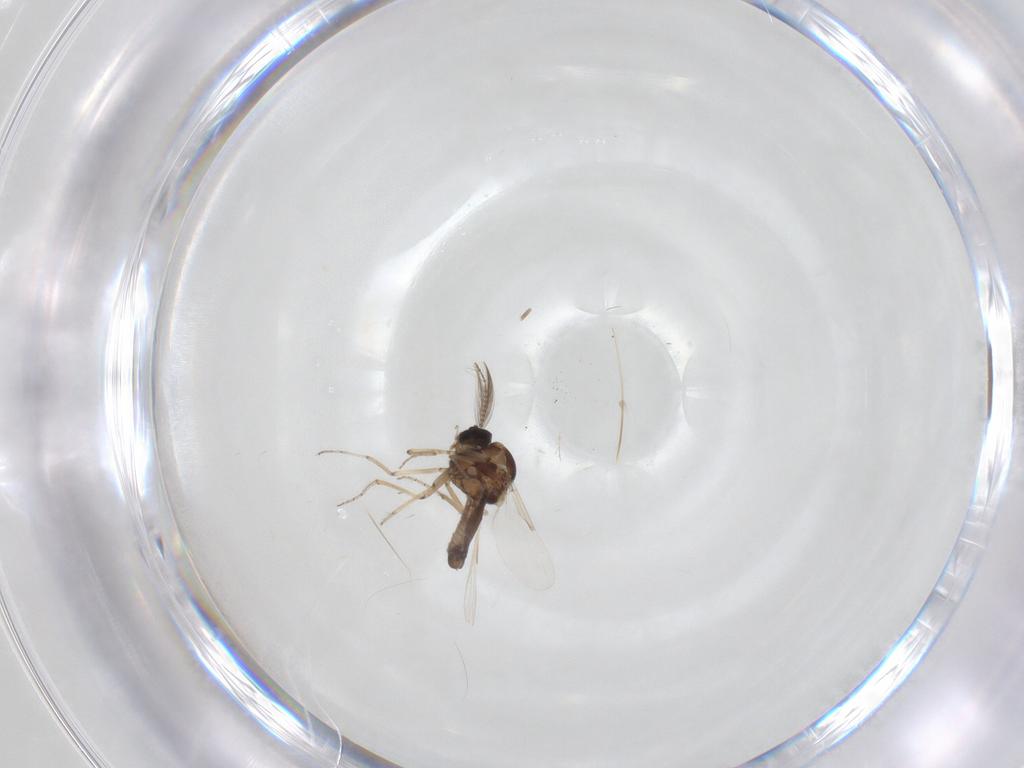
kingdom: Animalia
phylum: Arthropoda
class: Insecta
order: Diptera
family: Ceratopogonidae
